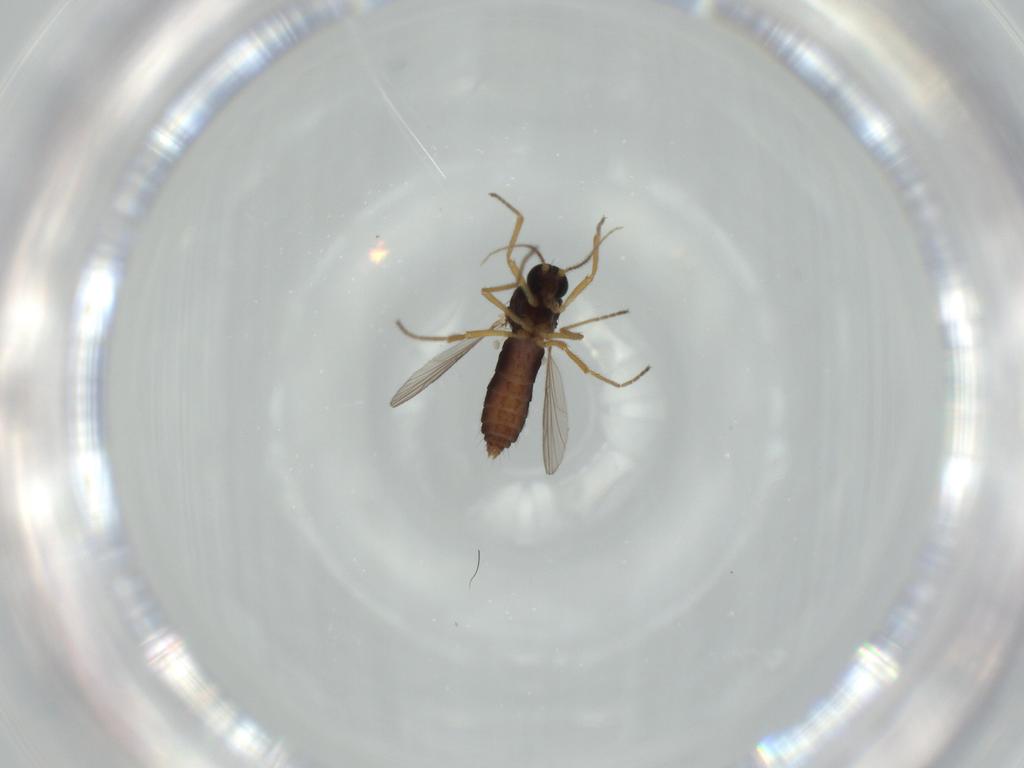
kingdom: Animalia
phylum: Arthropoda
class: Insecta
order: Diptera
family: Ceratopogonidae
